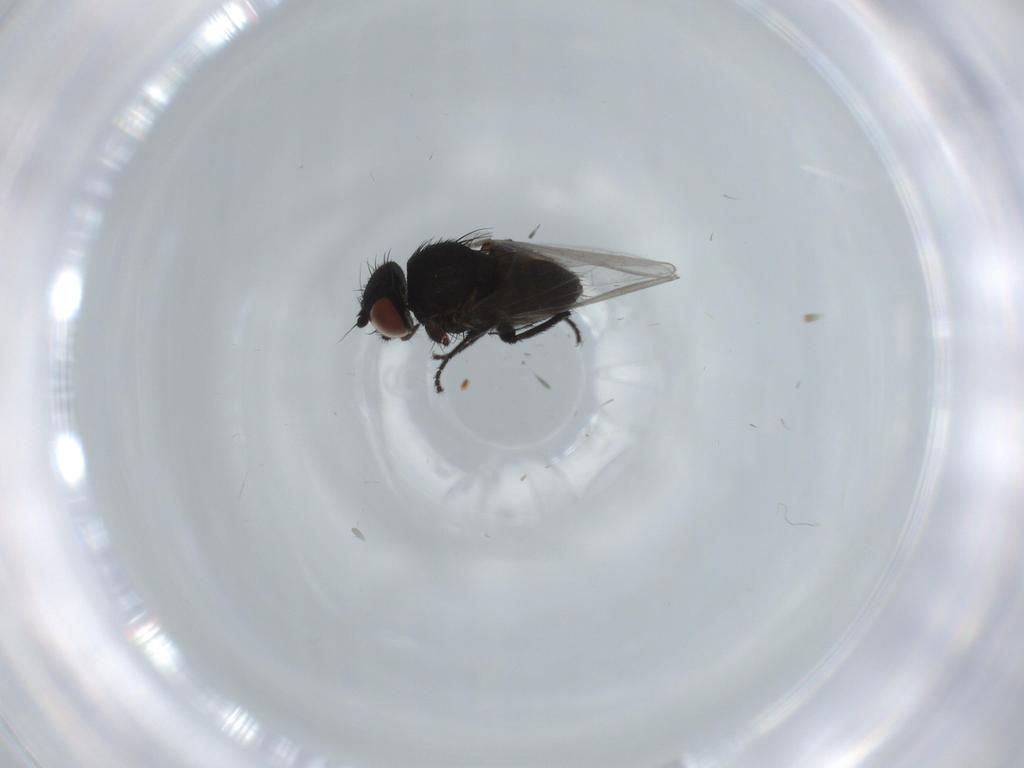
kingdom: Animalia
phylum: Arthropoda
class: Insecta
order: Diptera
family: Milichiidae
